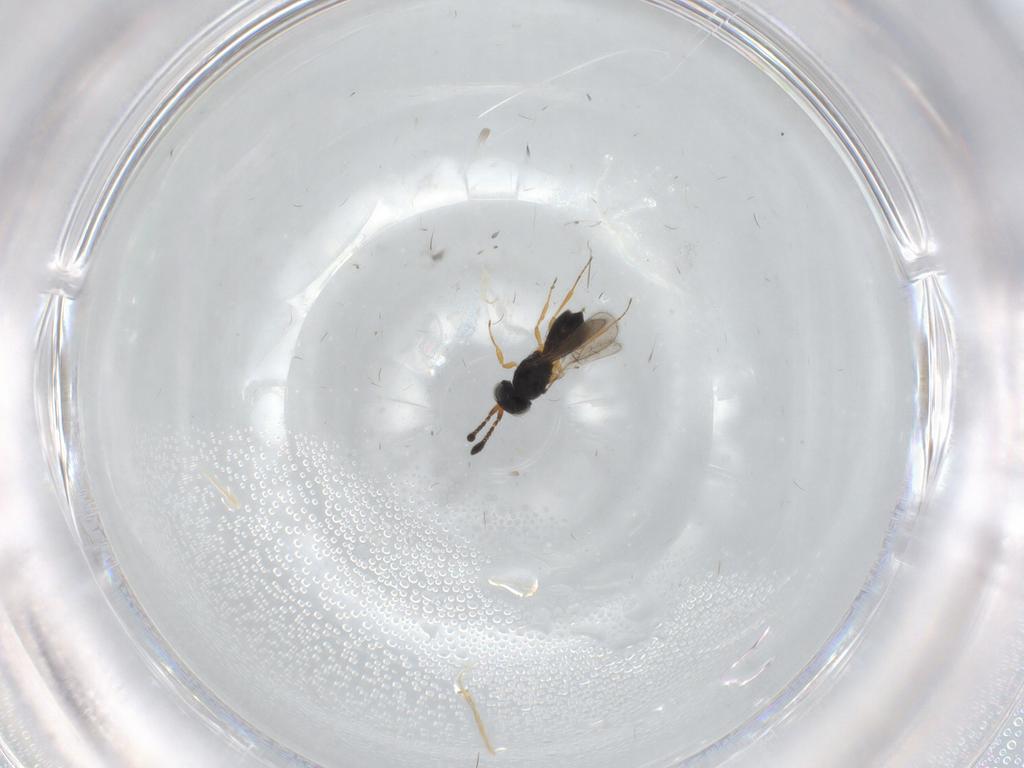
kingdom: Animalia
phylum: Arthropoda
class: Insecta
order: Hymenoptera
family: Scelionidae
